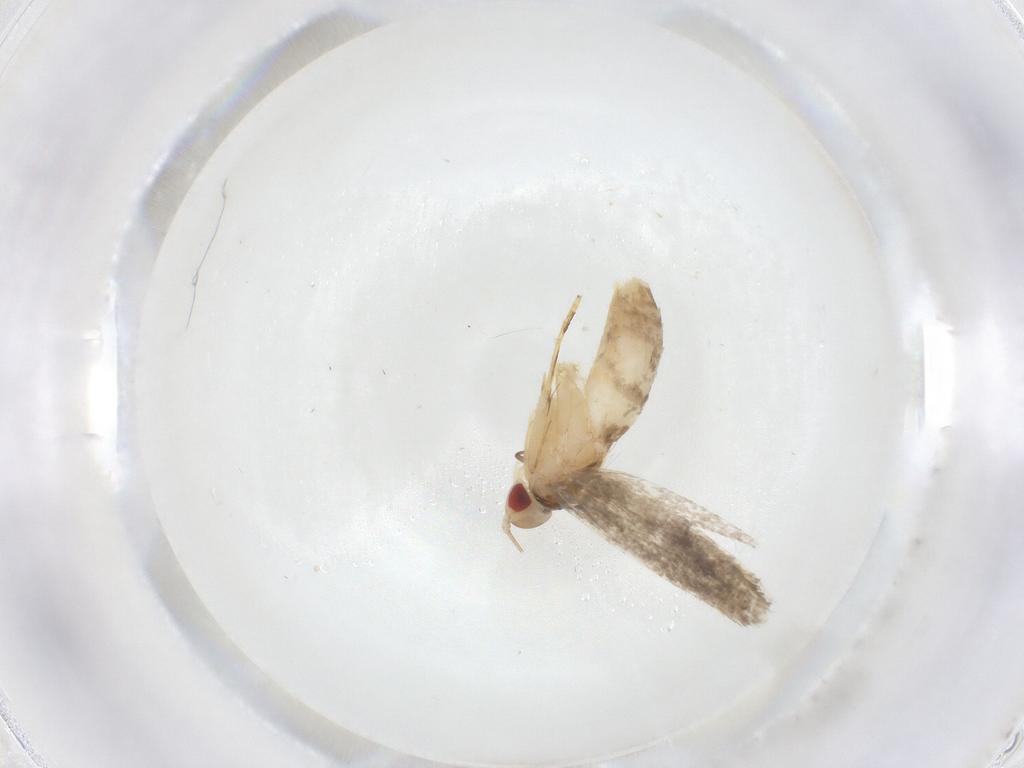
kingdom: Animalia
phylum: Arthropoda
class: Insecta
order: Lepidoptera
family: Cosmopterigidae
